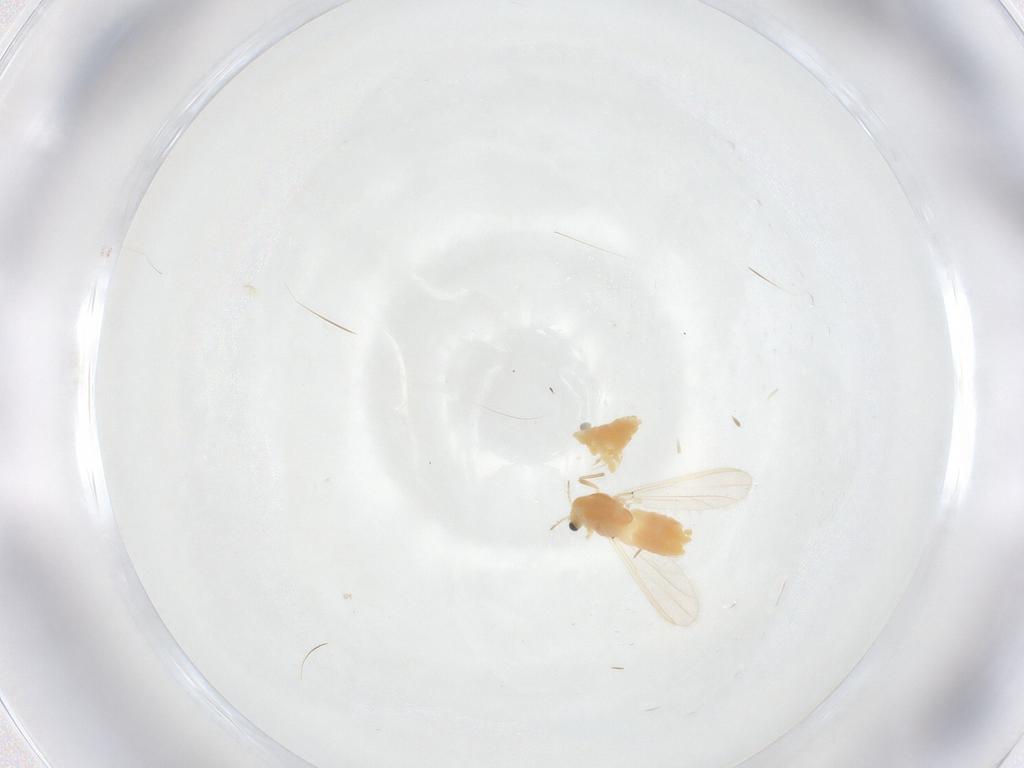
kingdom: Animalia
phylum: Arthropoda
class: Insecta
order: Diptera
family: Chironomidae
